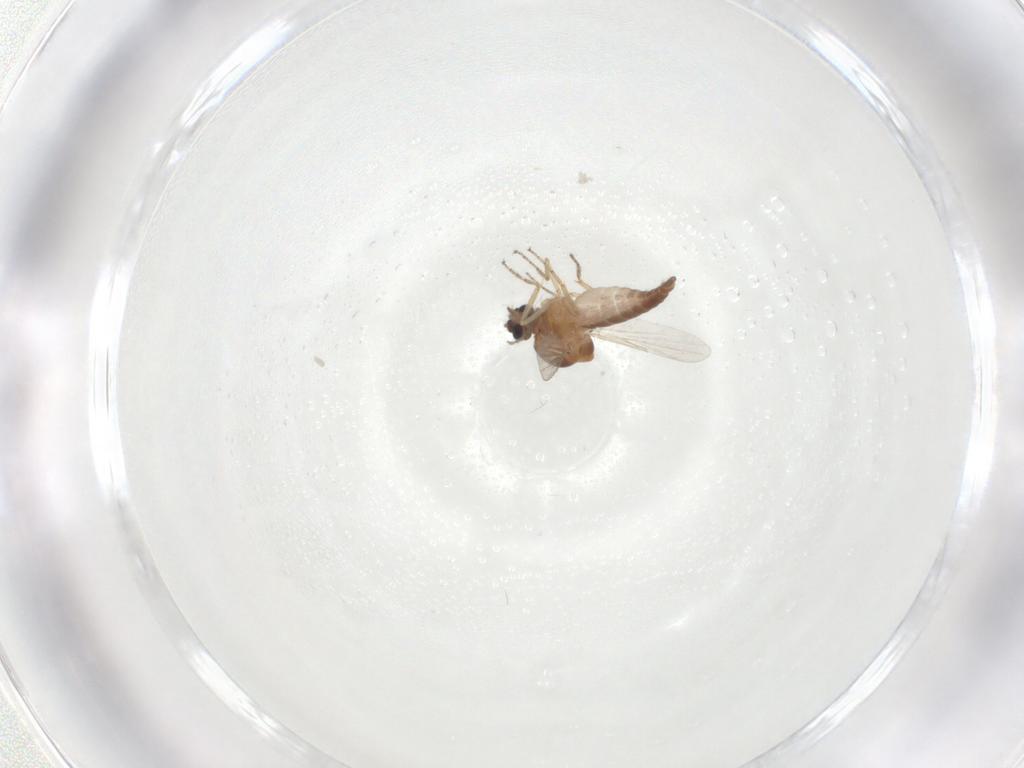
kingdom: Animalia
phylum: Arthropoda
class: Insecta
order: Diptera
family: Ceratopogonidae
